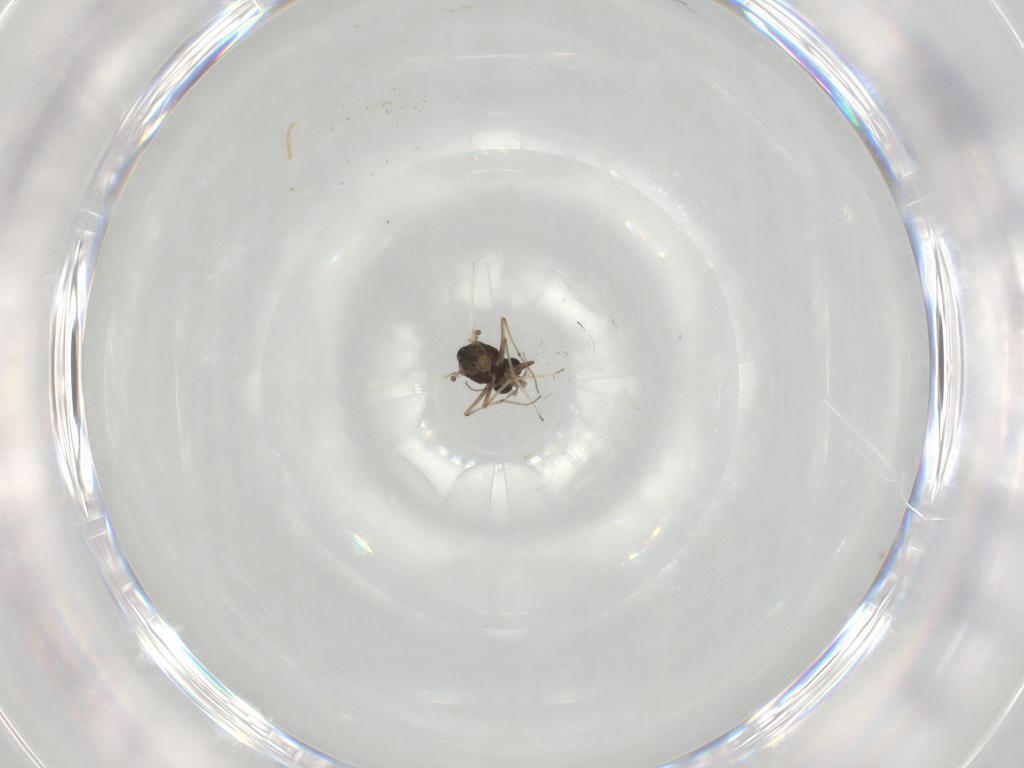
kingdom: Animalia
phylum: Arthropoda
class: Insecta
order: Diptera
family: Chironomidae
